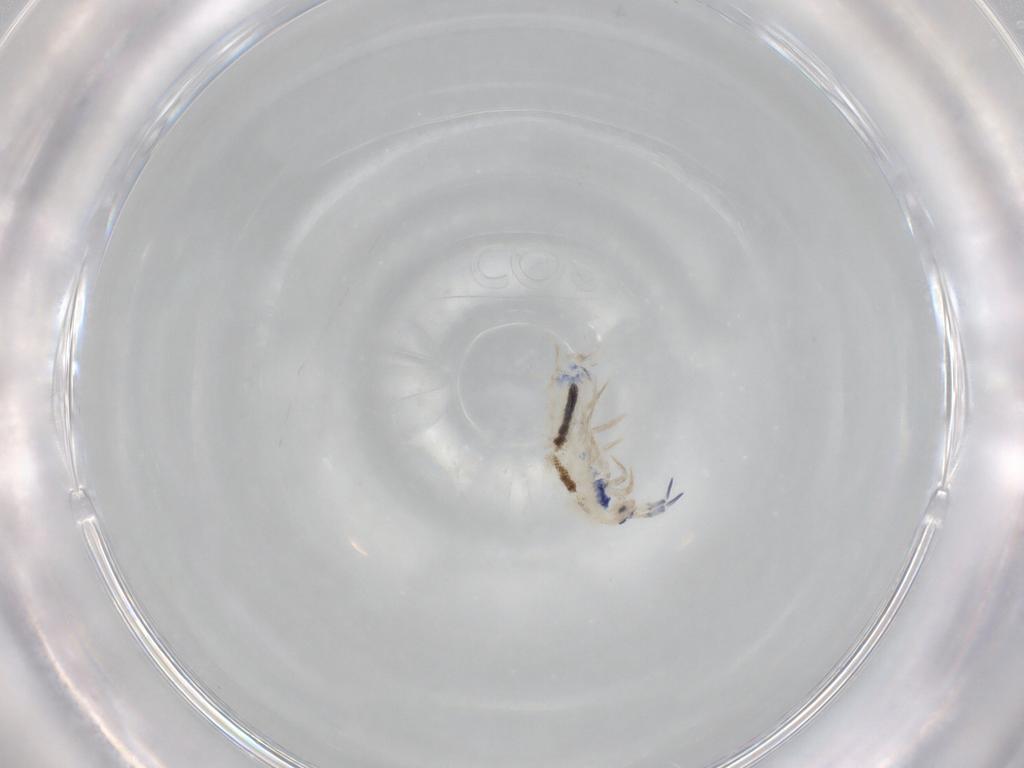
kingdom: Animalia
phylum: Arthropoda
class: Collembola
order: Entomobryomorpha
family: Entomobryidae
